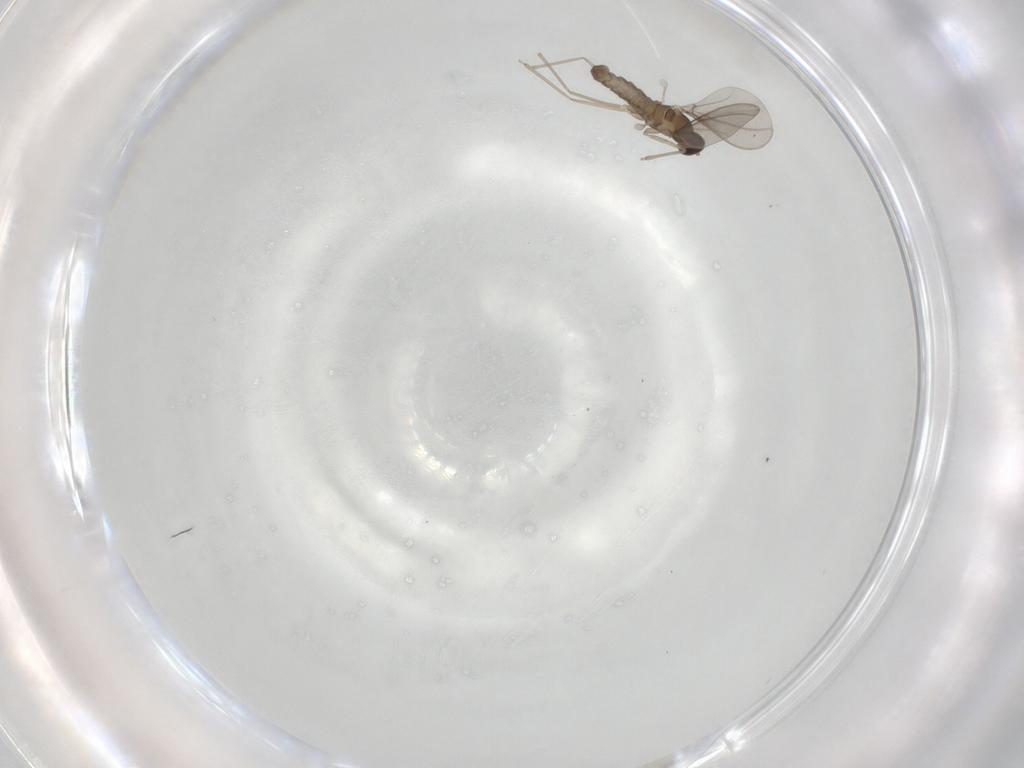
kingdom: Animalia
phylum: Arthropoda
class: Insecta
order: Diptera
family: Cecidomyiidae
